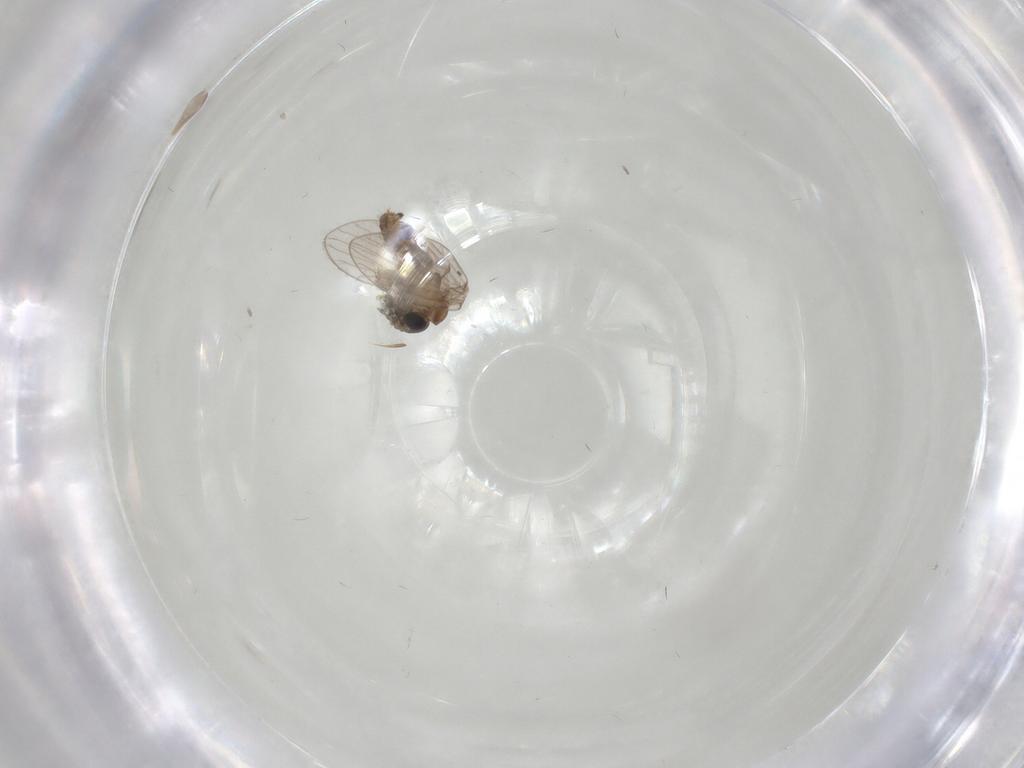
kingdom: Animalia
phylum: Arthropoda
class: Insecta
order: Diptera
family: Psychodidae
